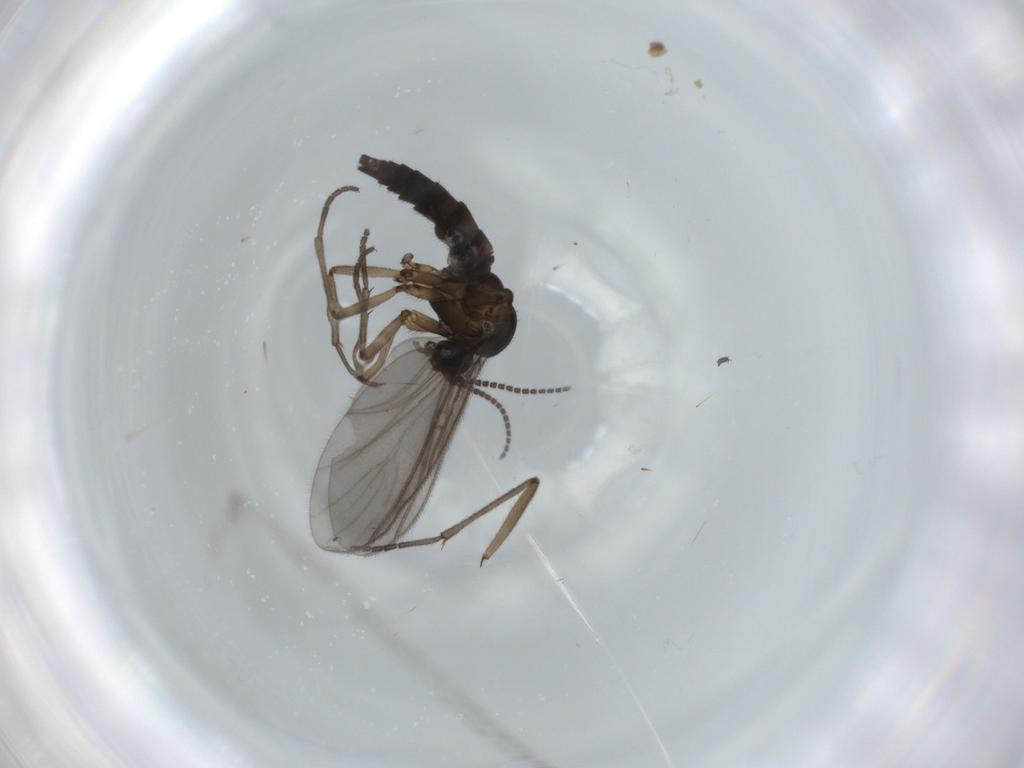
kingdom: Animalia
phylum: Arthropoda
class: Insecta
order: Diptera
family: Sciaridae
